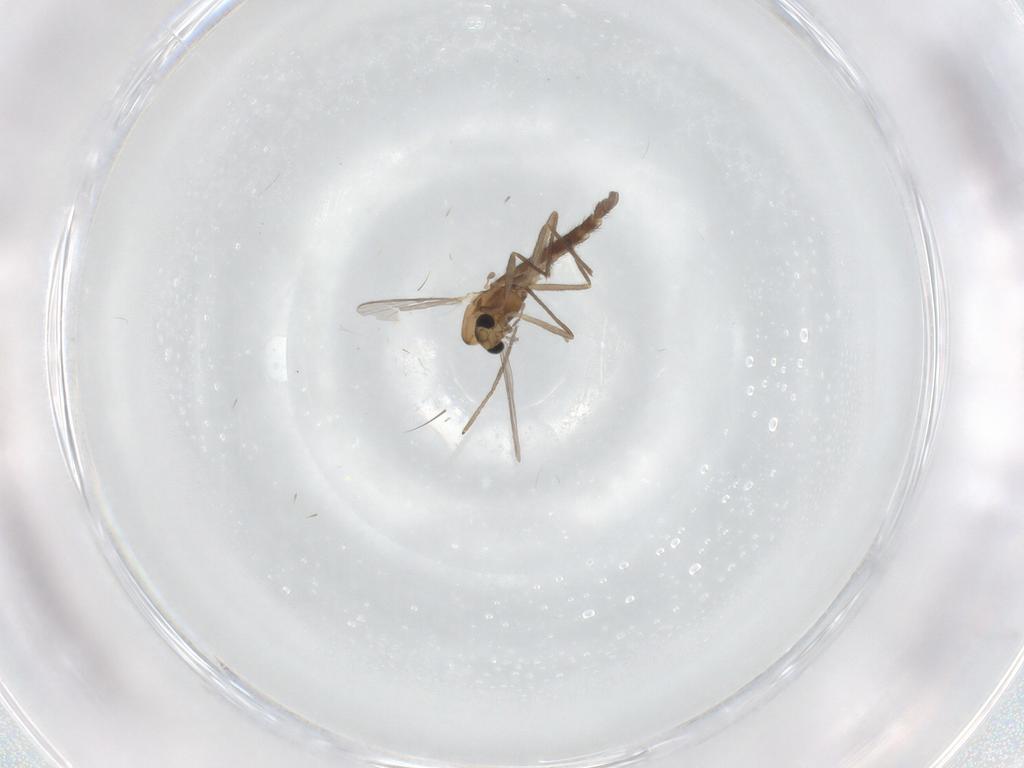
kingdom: Animalia
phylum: Arthropoda
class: Insecta
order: Diptera
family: Chironomidae
